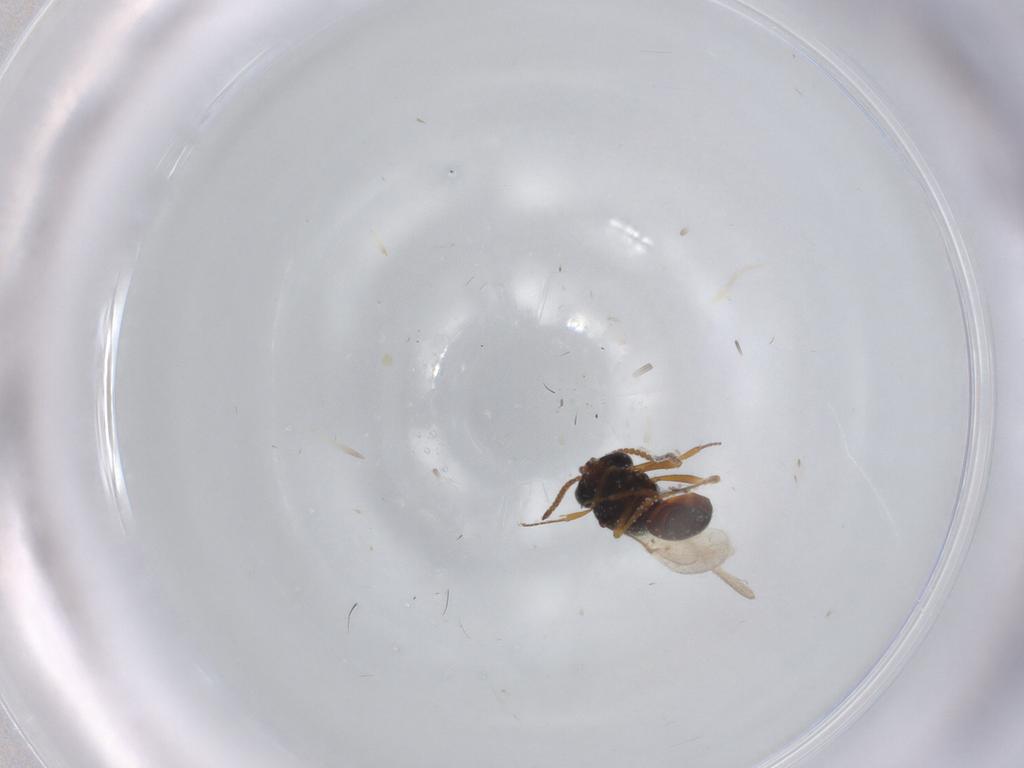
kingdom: Animalia
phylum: Arthropoda
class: Insecta
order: Hymenoptera
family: Scelionidae
